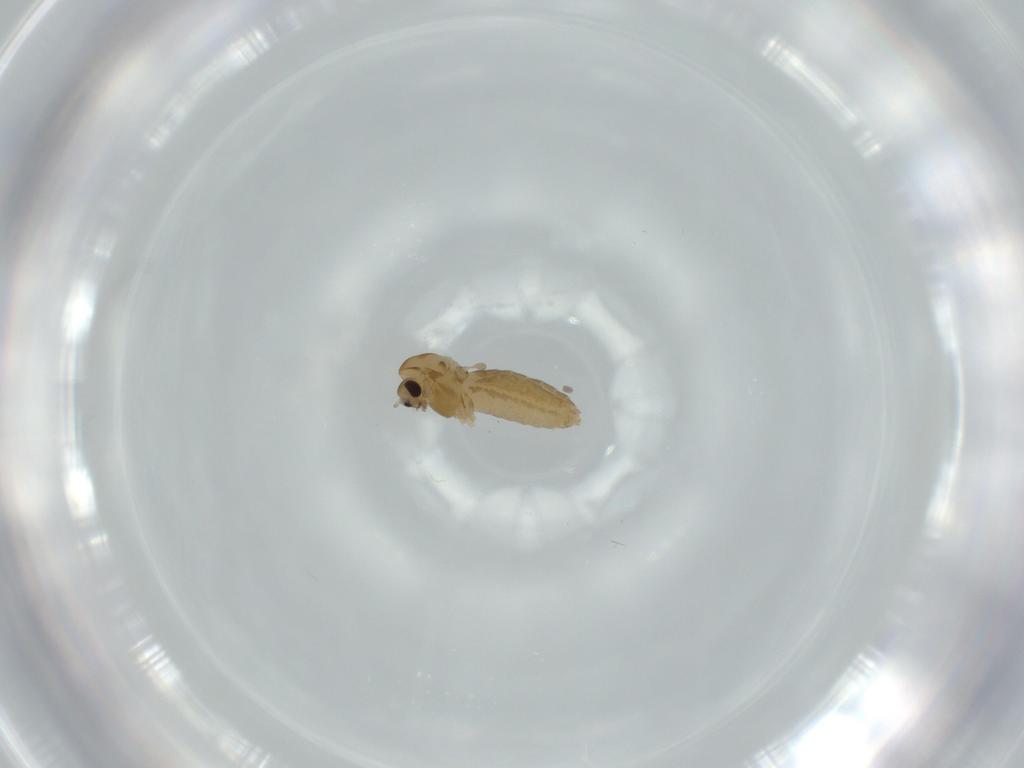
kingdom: Animalia
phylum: Arthropoda
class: Insecta
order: Diptera
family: Chironomidae
